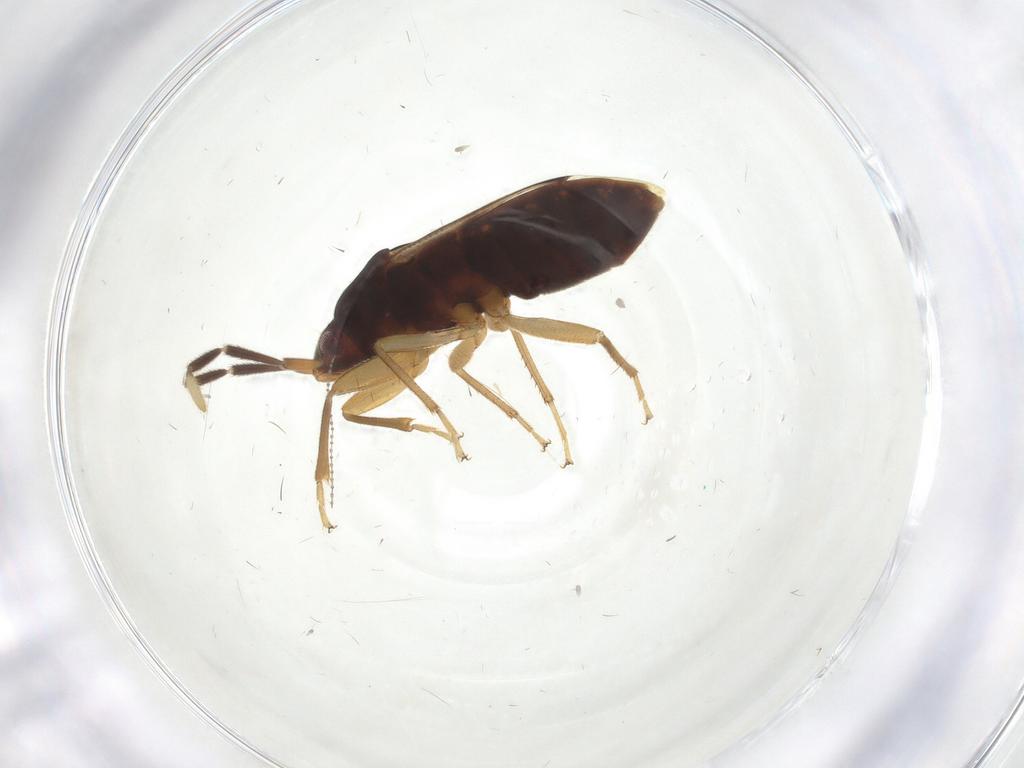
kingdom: Animalia
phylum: Arthropoda
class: Insecta
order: Hemiptera
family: Rhyparochromidae
